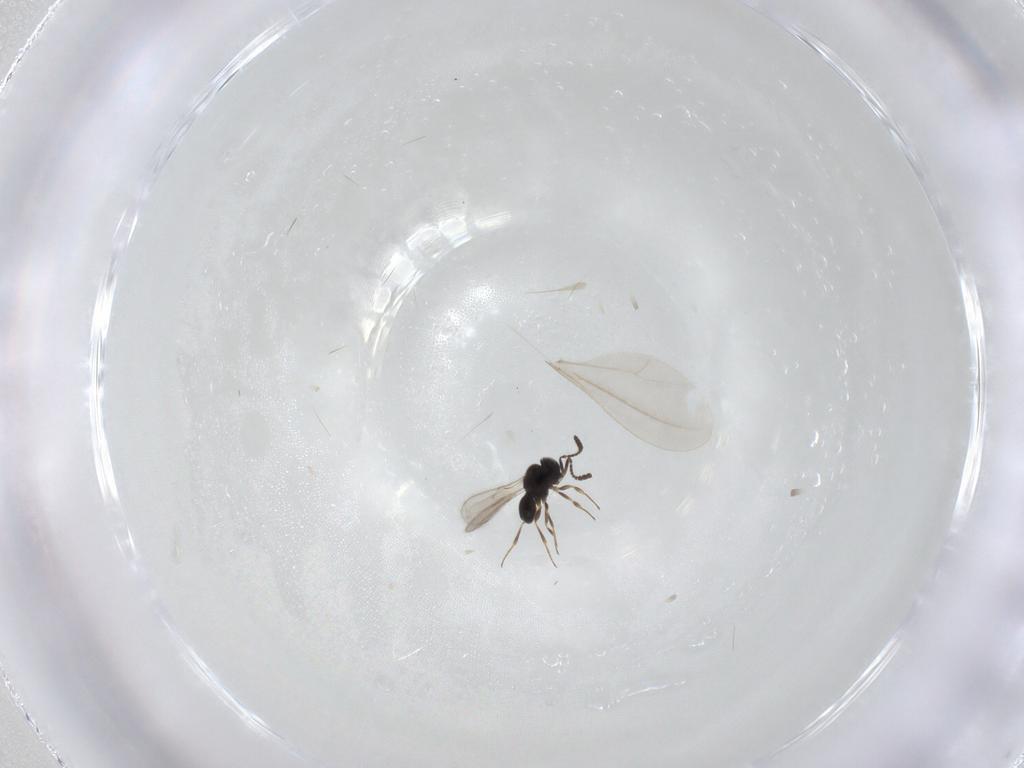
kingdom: Animalia
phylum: Arthropoda
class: Insecta
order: Hymenoptera
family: Scelionidae
